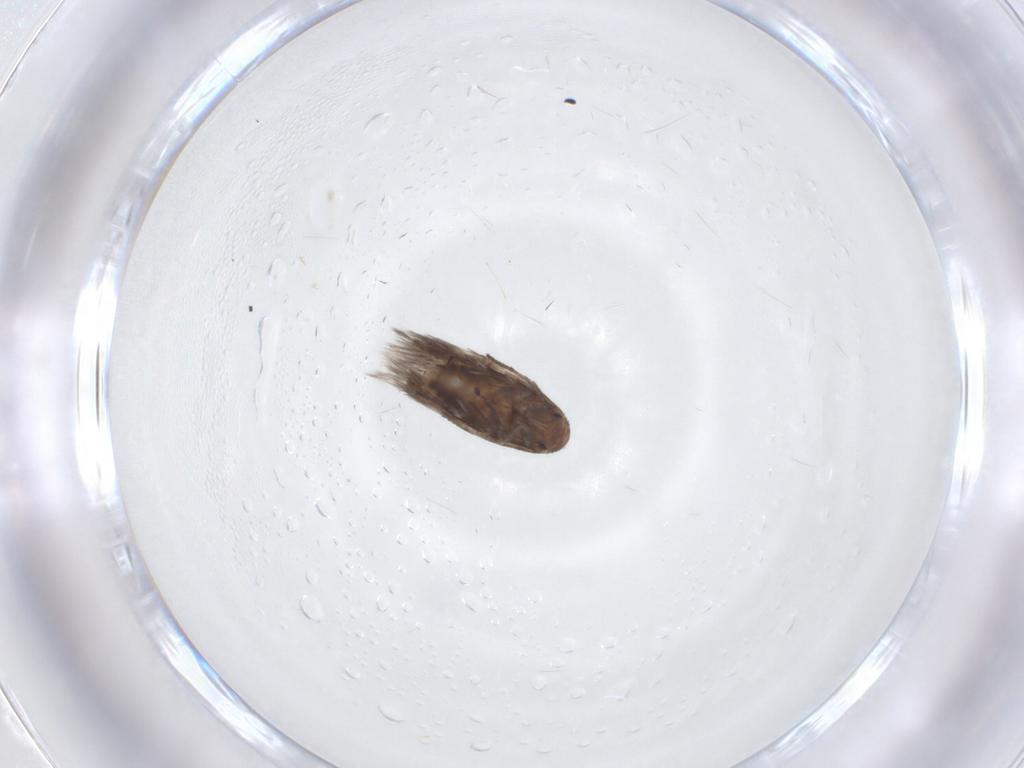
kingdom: Animalia
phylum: Arthropoda
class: Insecta
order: Lepidoptera
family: Lyonetiidae
